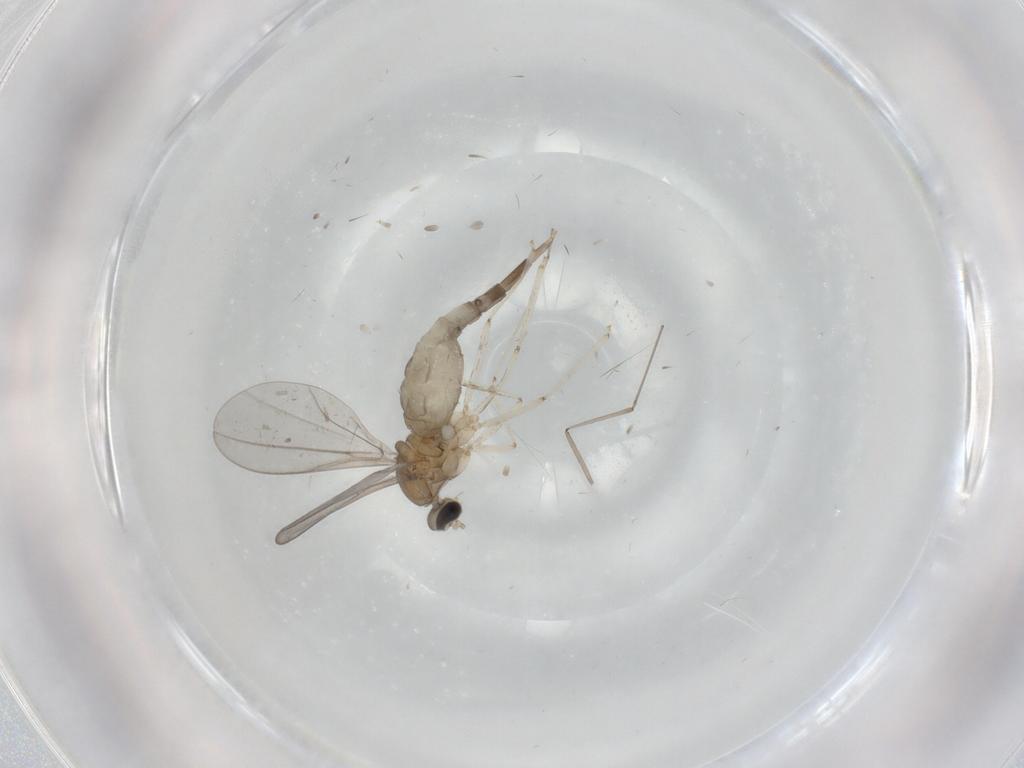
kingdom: Animalia
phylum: Arthropoda
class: Insecta
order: Diptera
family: Cecidomyiidae
